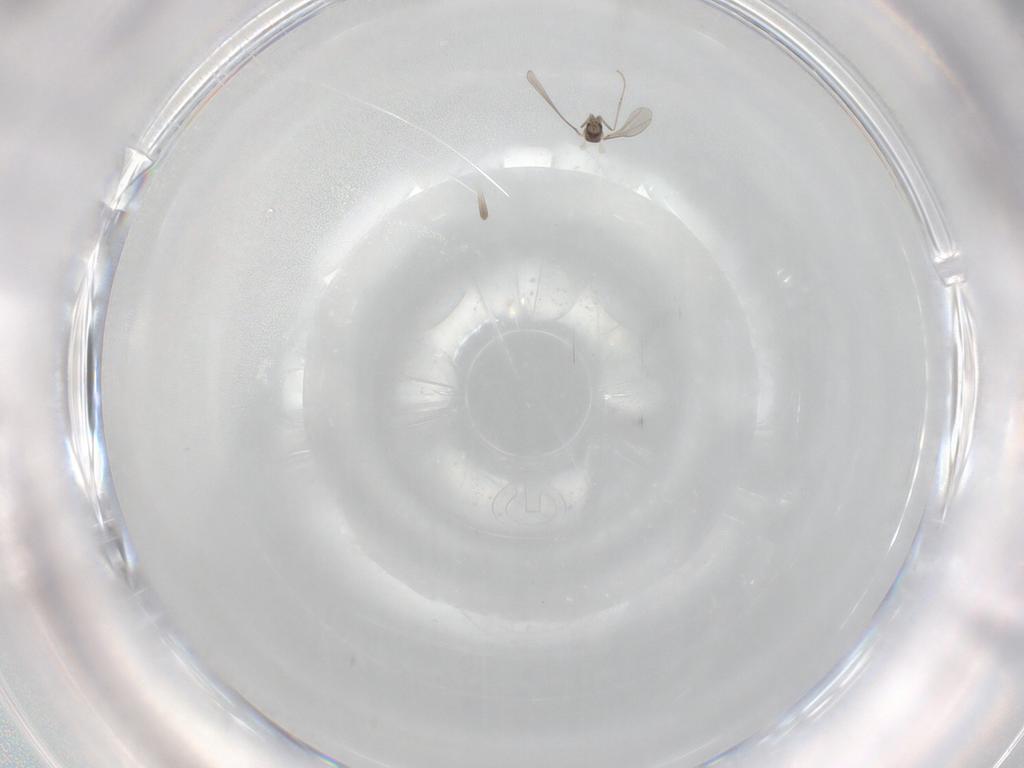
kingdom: Animalia
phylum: Arthropoda
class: Insecta
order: Diptera
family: Cecidomyiidae
